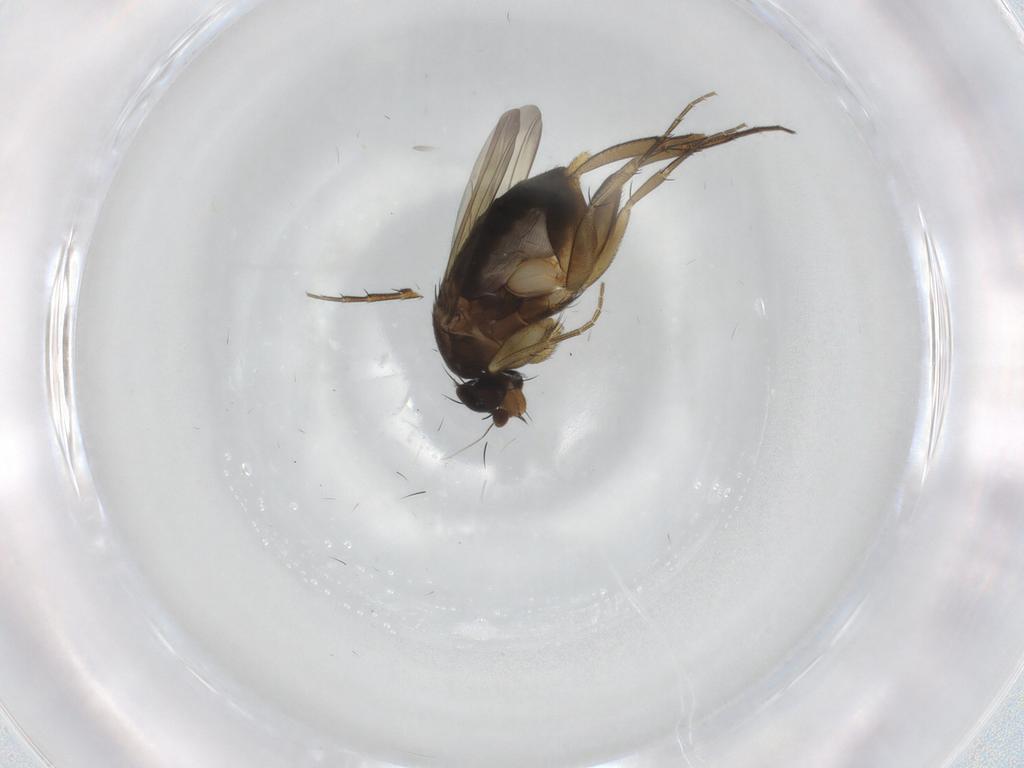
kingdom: Animalia
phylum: Arthropoda
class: Insecta
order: Diptera
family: Phoridae
